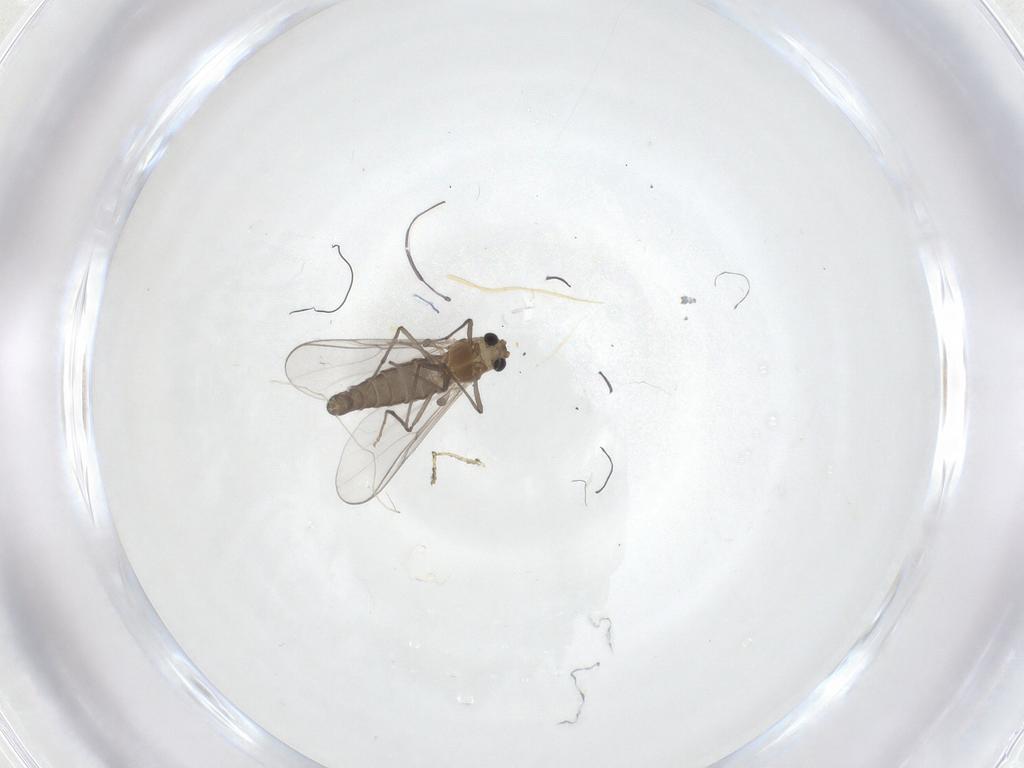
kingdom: Animalia
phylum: Arthropoda
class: Insecta
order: Diptera
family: Chironomidae
